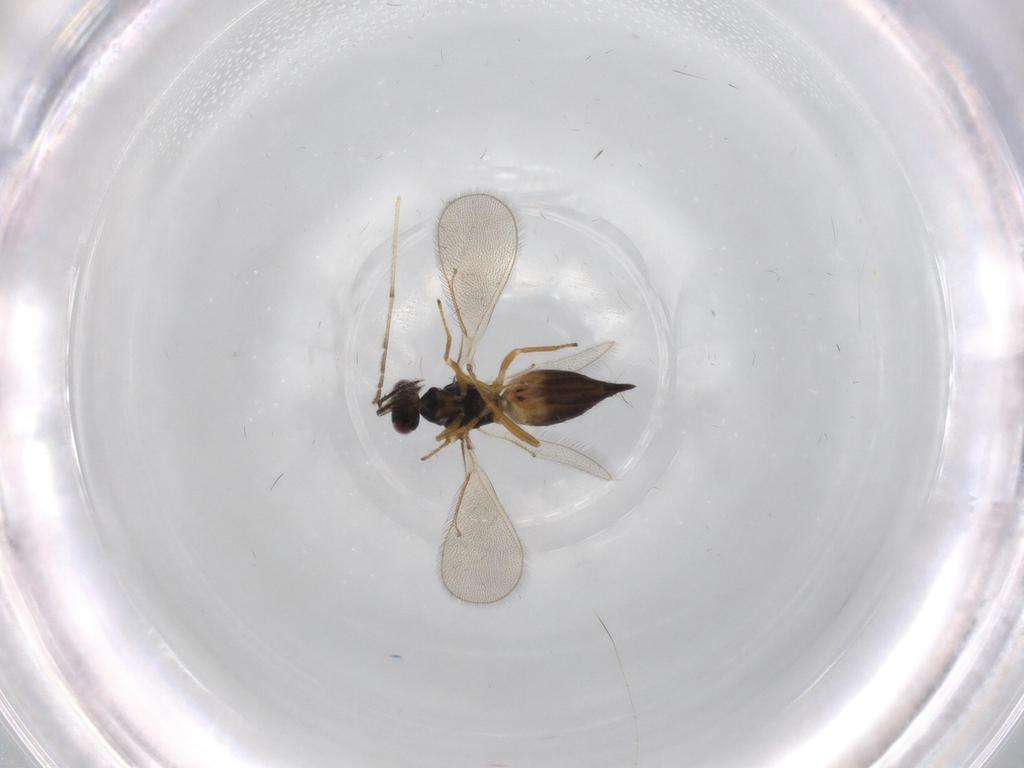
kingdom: Animalia
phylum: Arthropoda
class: Insecta
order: Hymenoptera
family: Eulophidae
